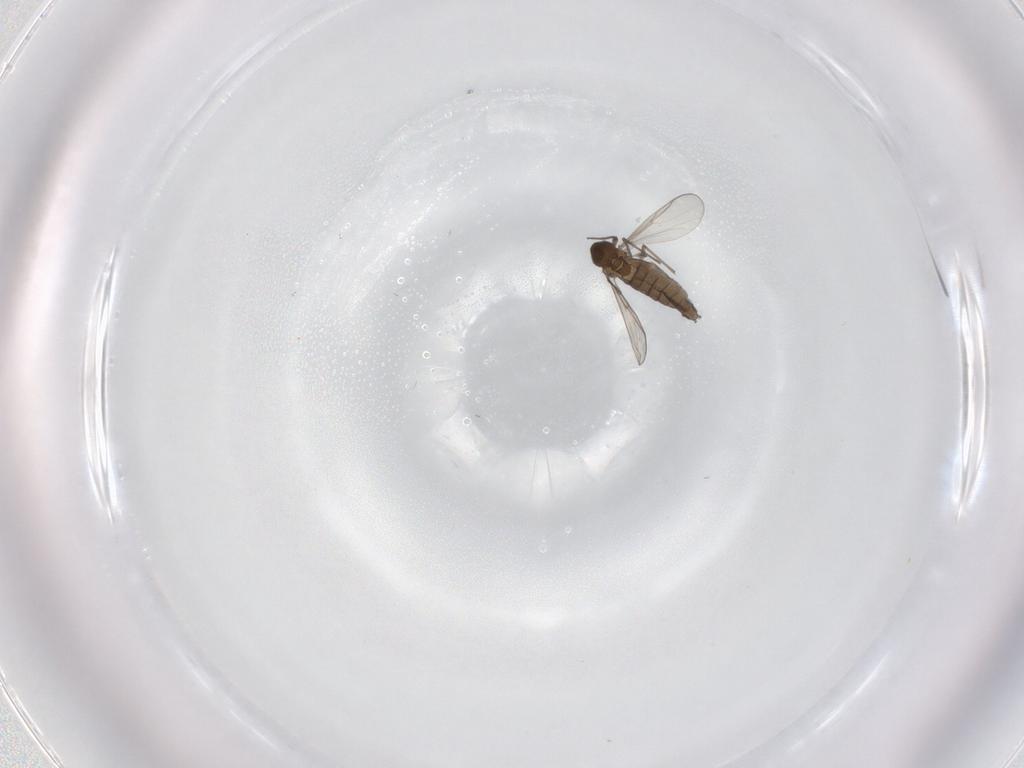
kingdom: Animalia
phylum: Arthropoda
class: Insecta
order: Diptera
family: Chironomidae
